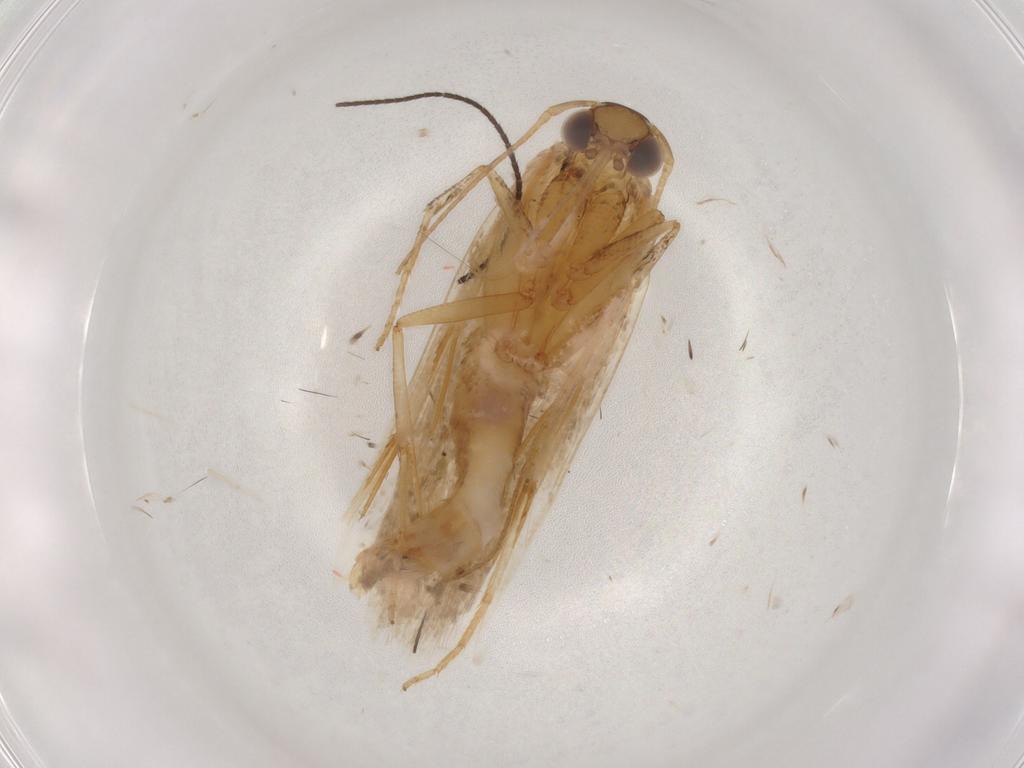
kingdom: Animalia
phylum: Arthropoda
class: Insecta
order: Lepidoptera
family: Gelechiidae
